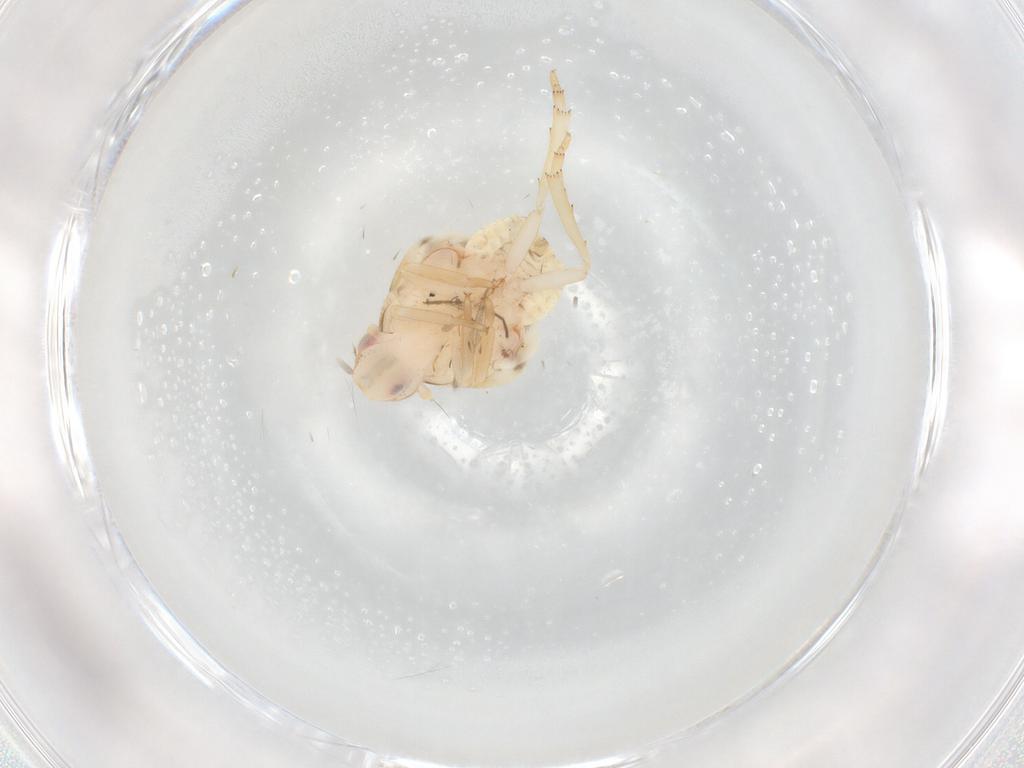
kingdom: Animalia
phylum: Arthropoda
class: Insecta
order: Hemiptera
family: Flatidae
